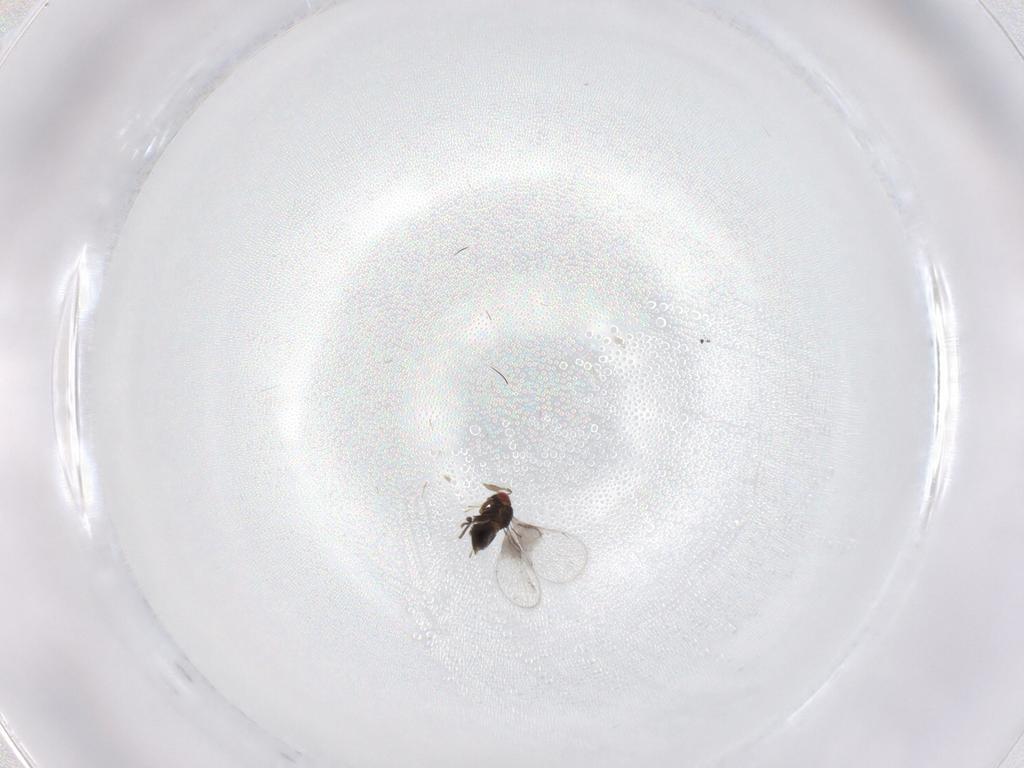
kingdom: Animalia
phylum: Arthropoda
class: Insecta
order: Hymenoptera
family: Trichogrammatidae
